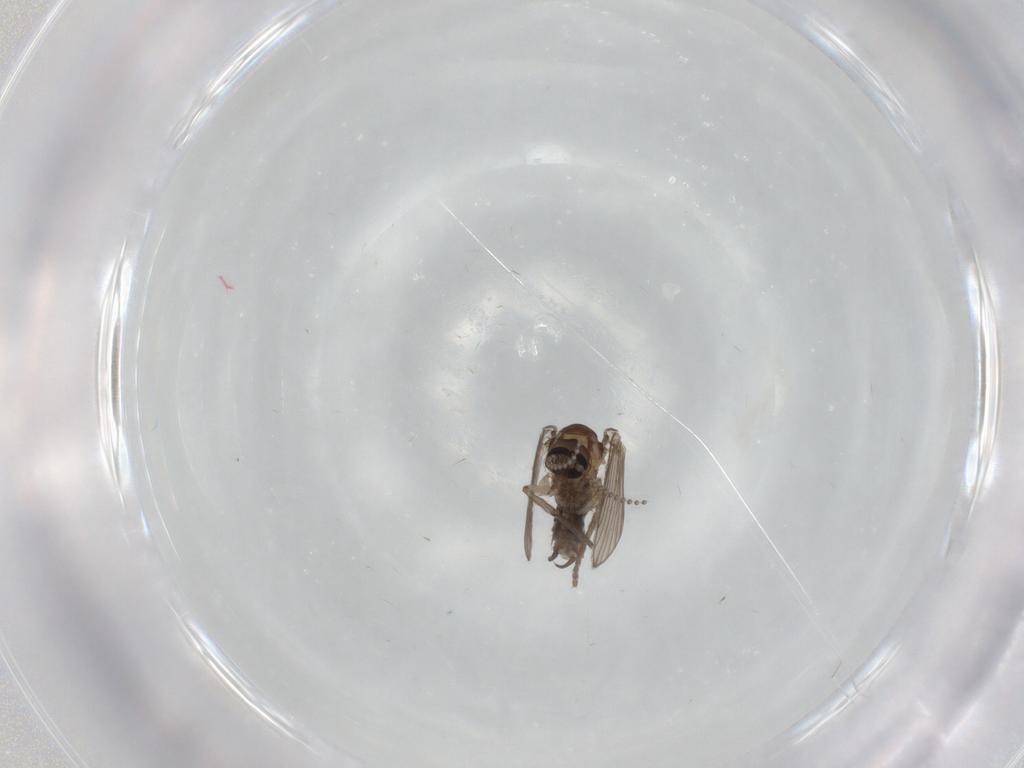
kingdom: Animalia
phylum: Arthropoda
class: Insecta
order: Diptera
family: Psychodidae
